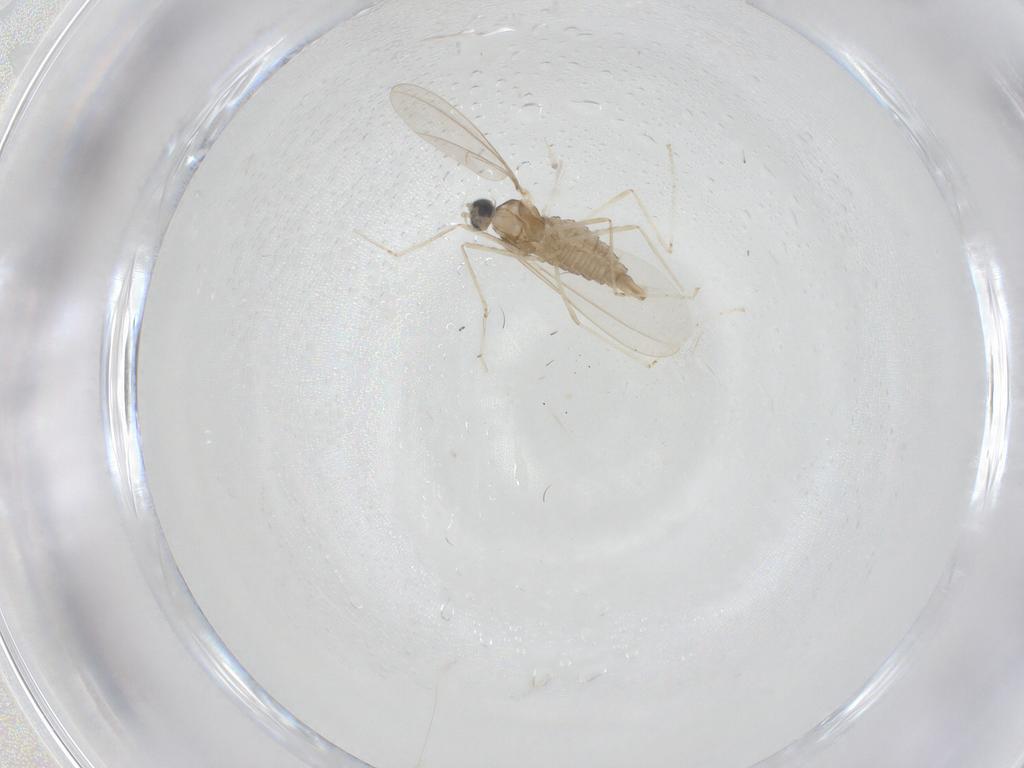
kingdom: Animalia
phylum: Arthropoda
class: Insecta
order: Diptera
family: Cecidomyiidae
